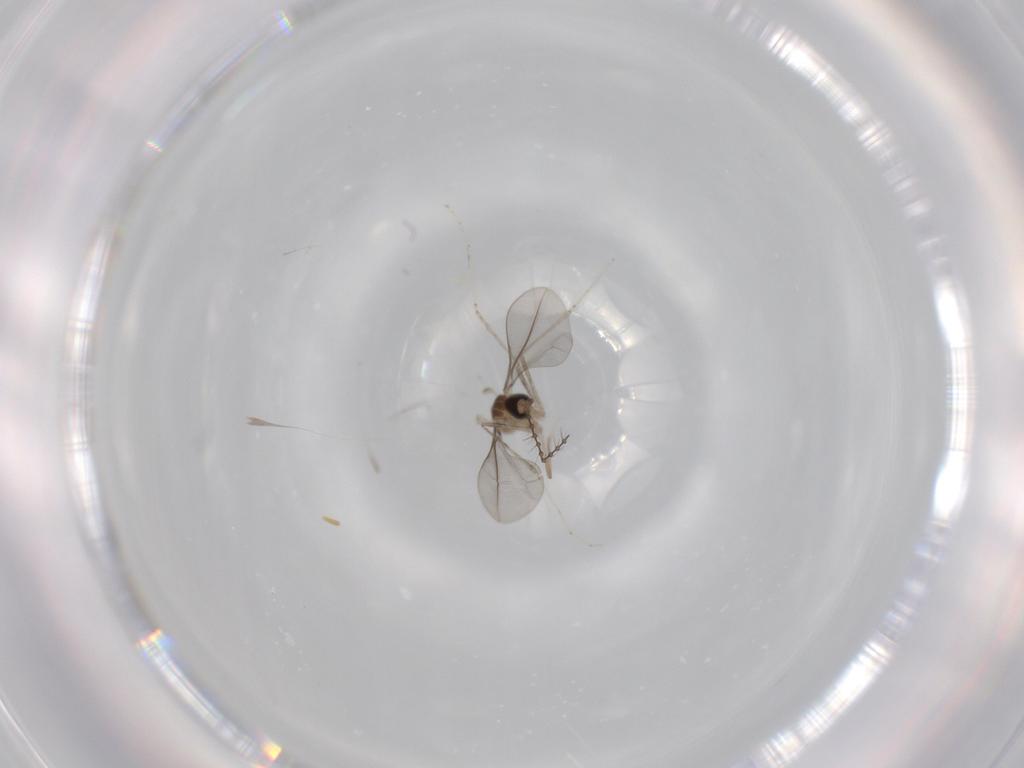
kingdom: Animalia
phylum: Arthropoda
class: Insecta
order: Diptera
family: Cecidomyiidae
